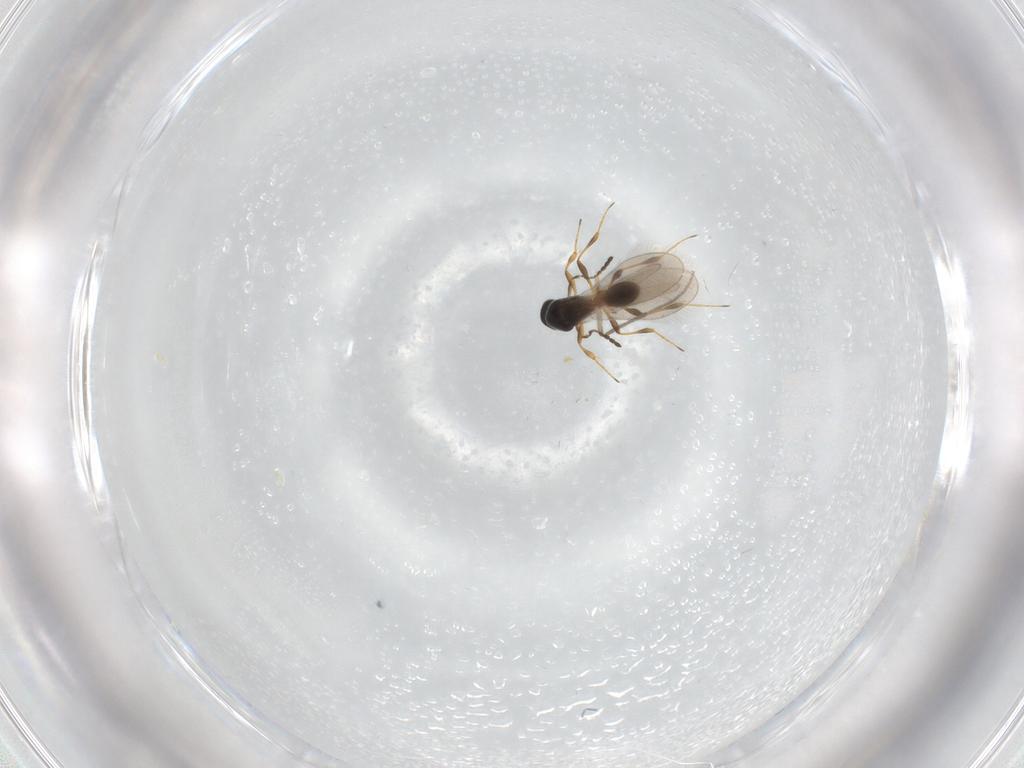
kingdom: Animalia
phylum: Arthropoda
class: Insecta
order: Hymenoptera
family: Platygastridae
